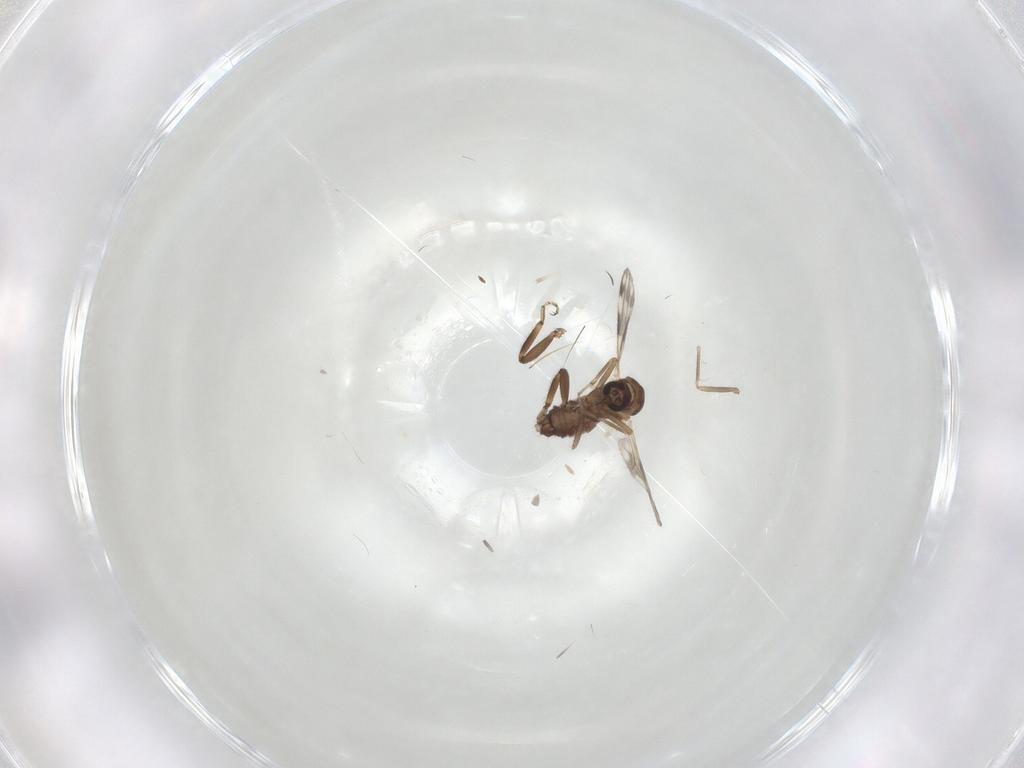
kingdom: Animalia
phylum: Arthropoda
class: Insecta
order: Diptera
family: Ceratopogonidae
